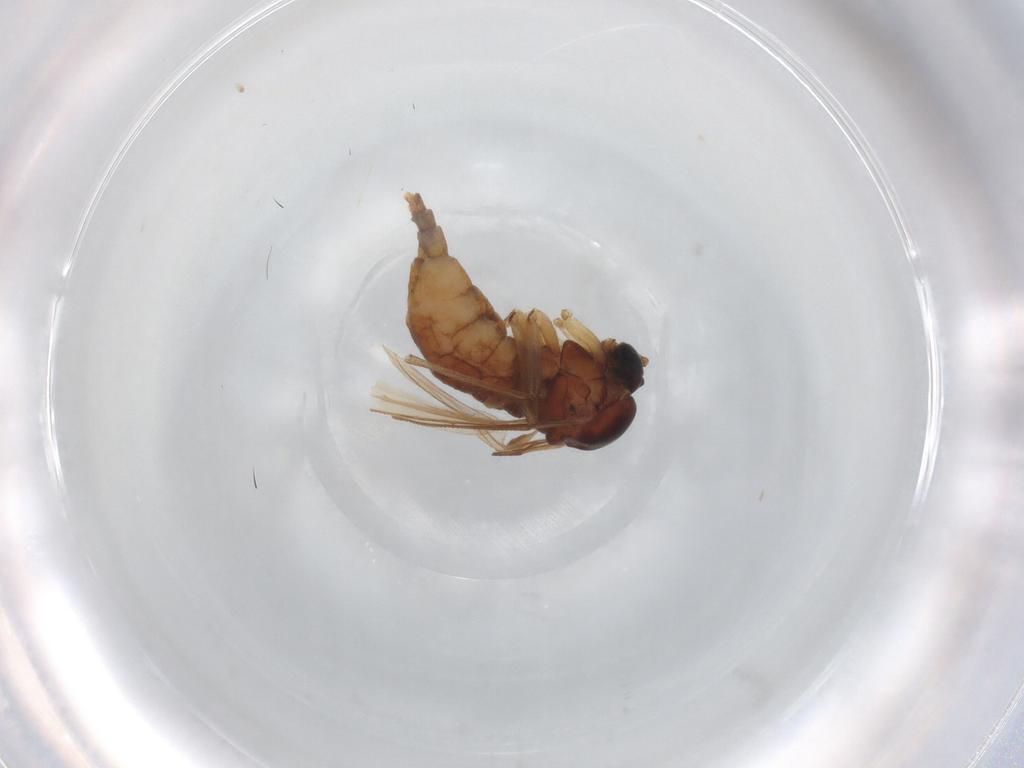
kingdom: Animalia
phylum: Arthropoda
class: Insecta
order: Diptera
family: Sciaridae
